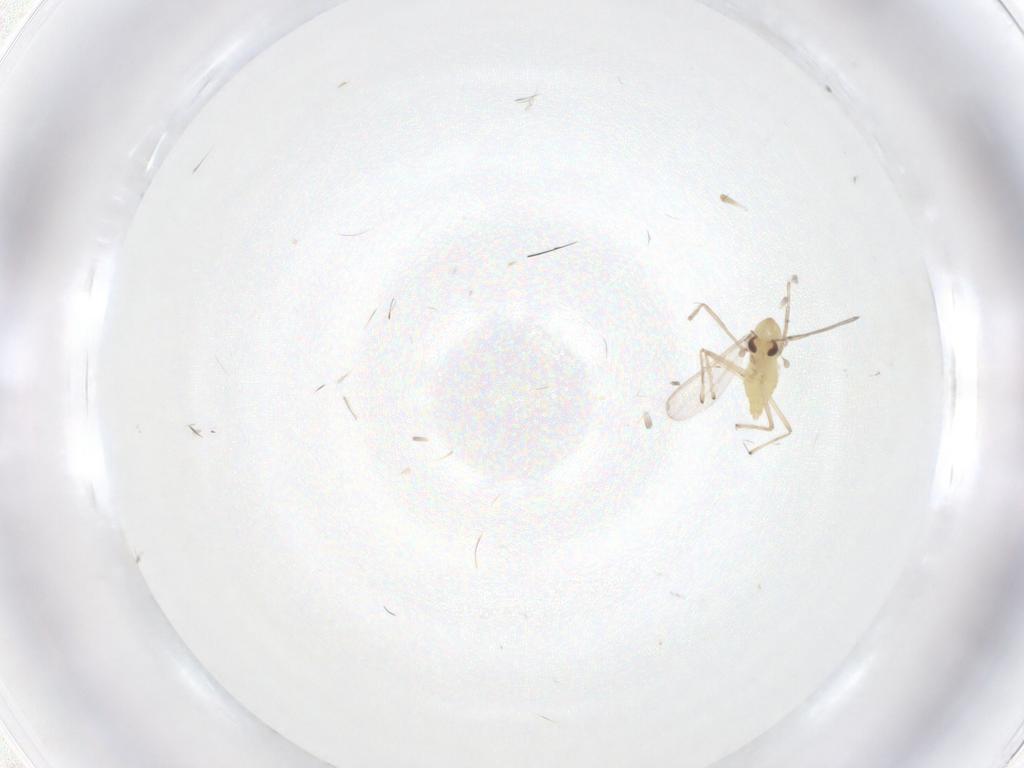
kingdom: Animalia
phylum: Arthropoda
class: Insecta
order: Diptera
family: Chironomidae
